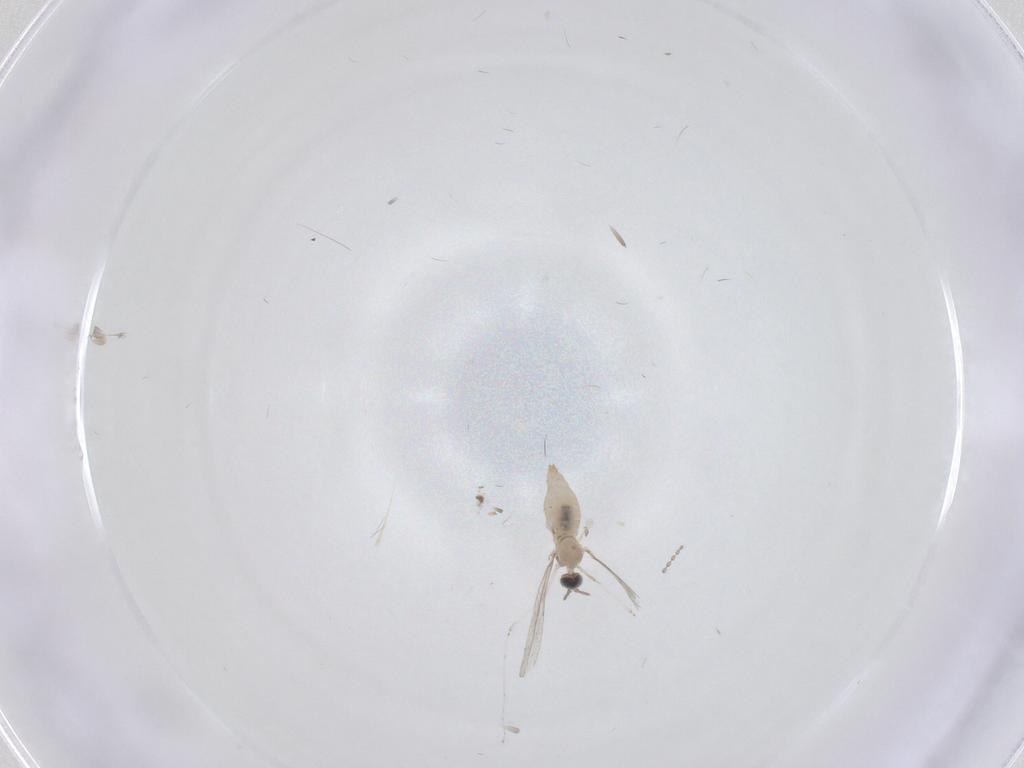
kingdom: Animalia
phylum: Arthropoda
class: Insecta
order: Diptera
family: Cecidomyiidae
